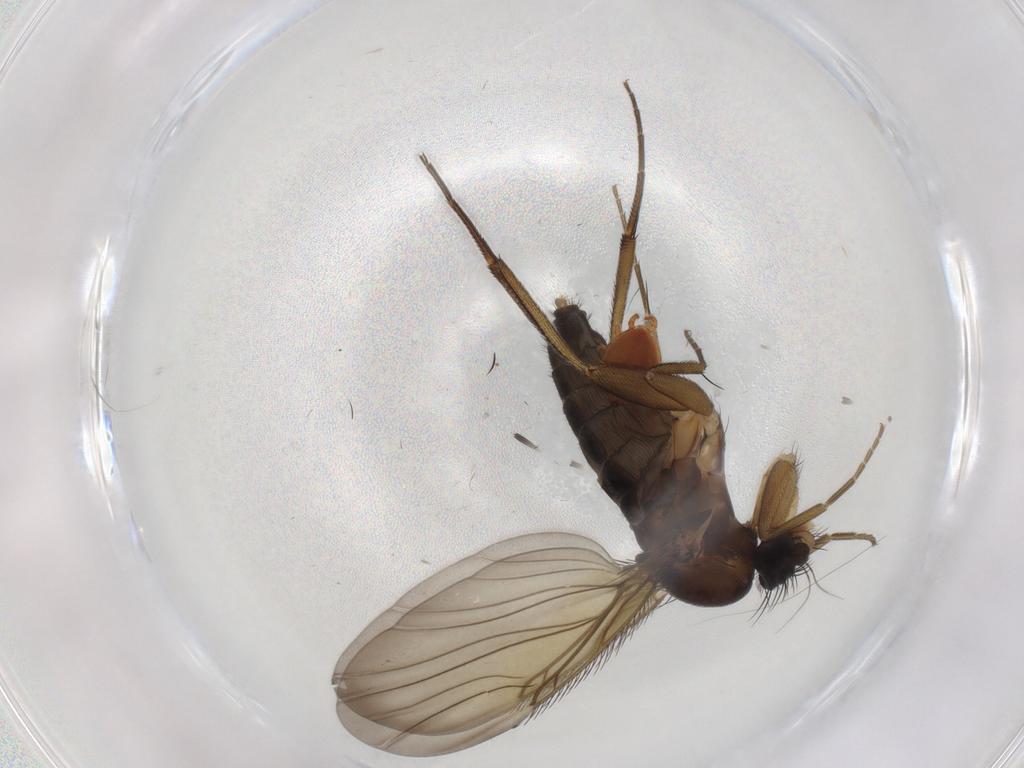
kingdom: Animalia
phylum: Arthropoda
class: Insecta
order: Diptera
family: Phoridae
